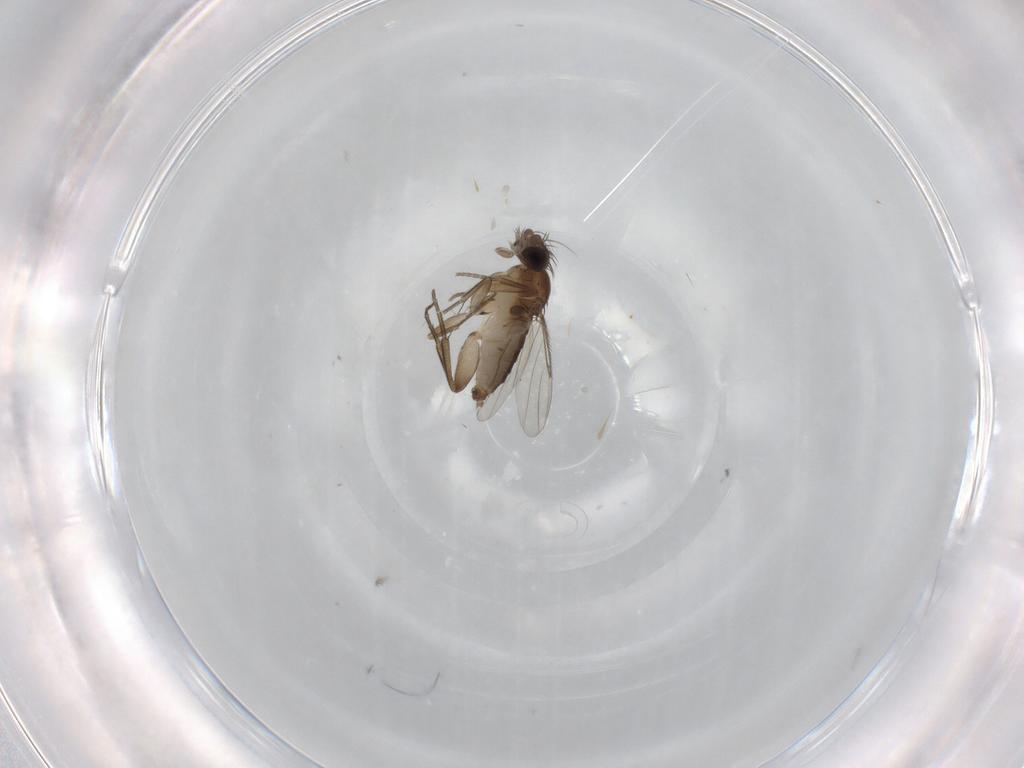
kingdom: Animalia
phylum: Arthropoda
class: Insecta
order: Diptera
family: Phoridae
